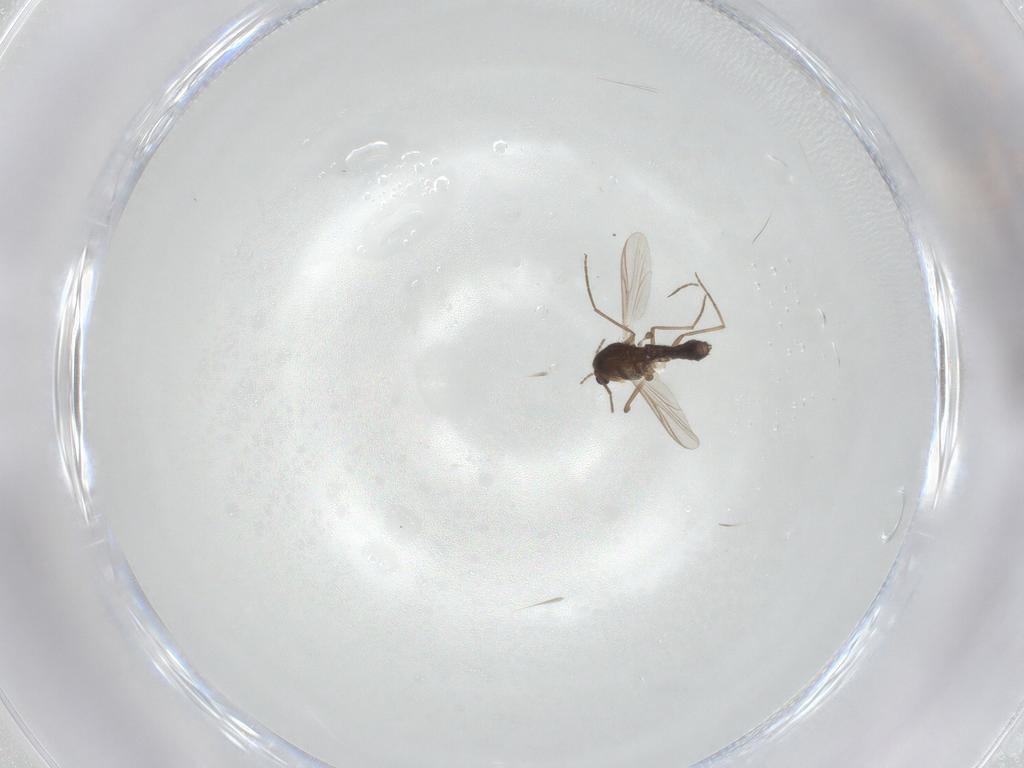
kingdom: Animalia
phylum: Arthropoda
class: Insecta
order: Diptera
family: Chironomidae
